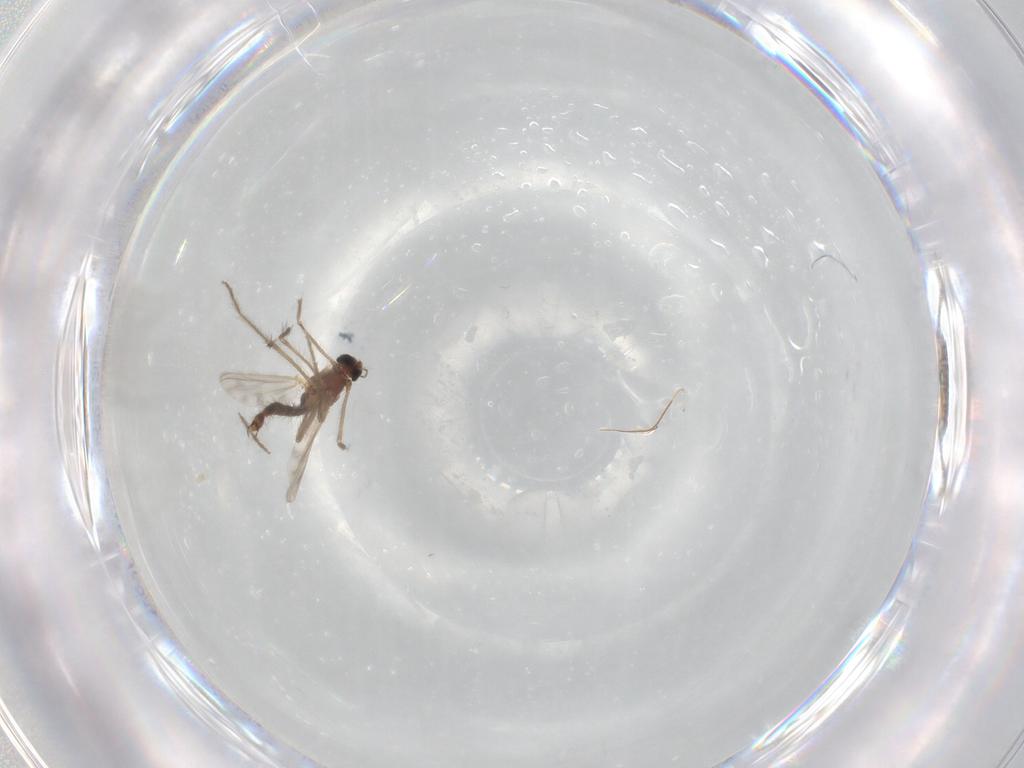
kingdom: Animalia
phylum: Arthropoda
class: Insecta
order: Diptera
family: Chironomidae
